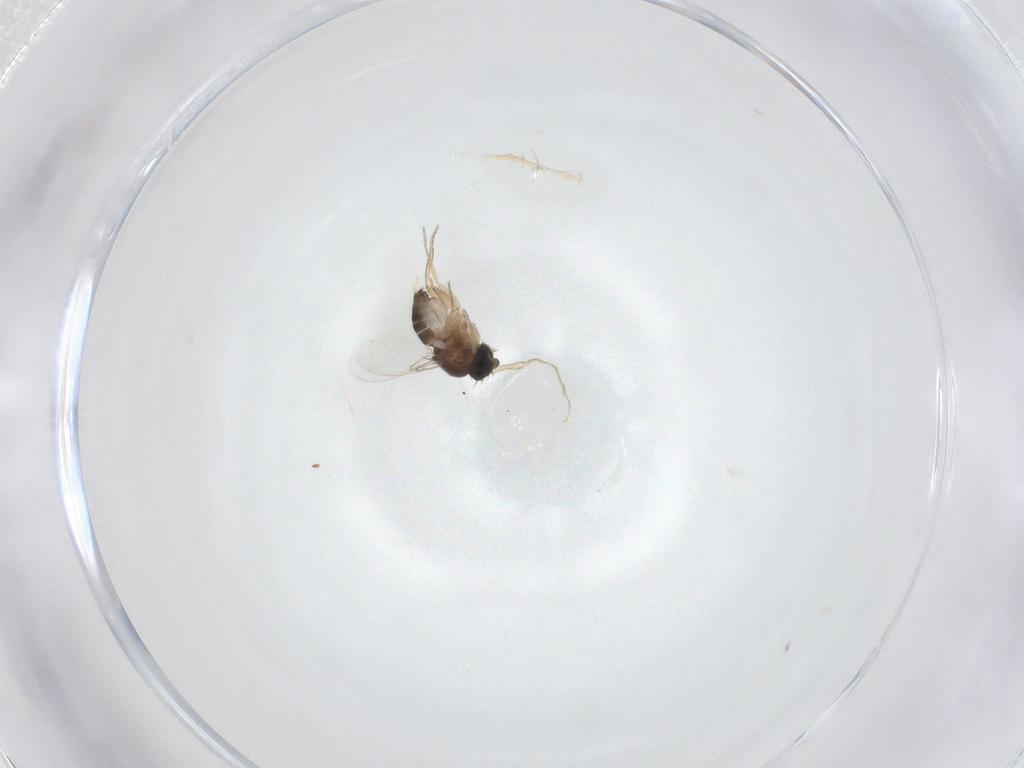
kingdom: Animalia
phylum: Arthropoda
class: Insecta
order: Diptera
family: Phoridae
